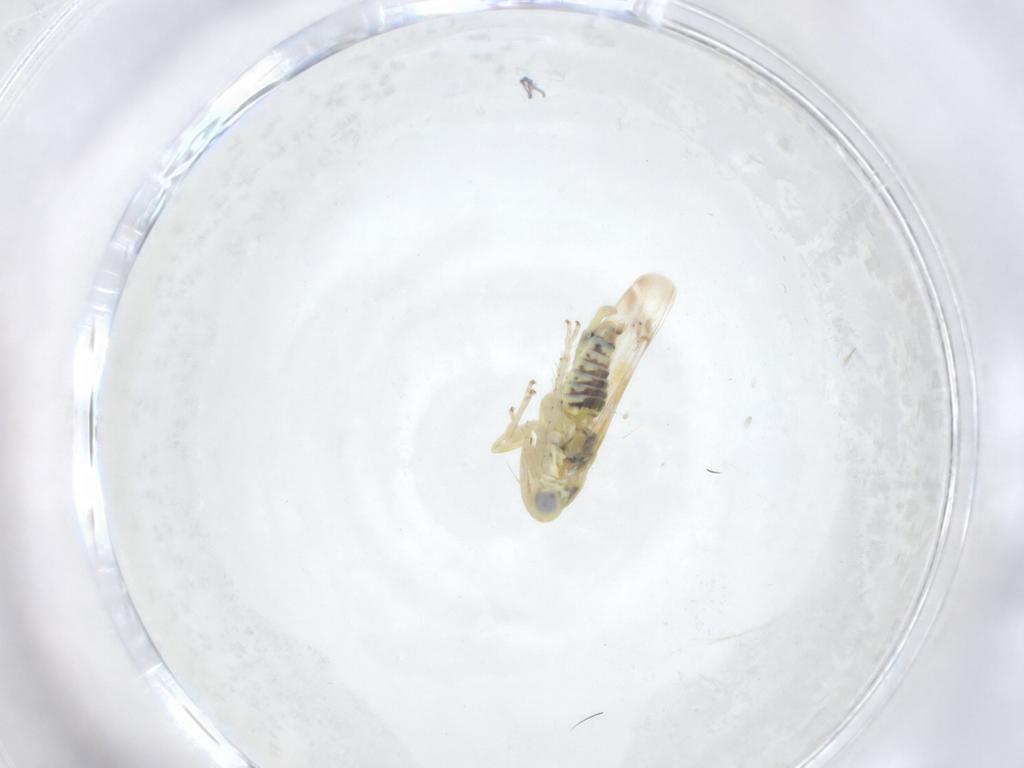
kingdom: Animalia
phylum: Arthropoda
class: Insecta
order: Hemiptera
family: Cicadellidae
